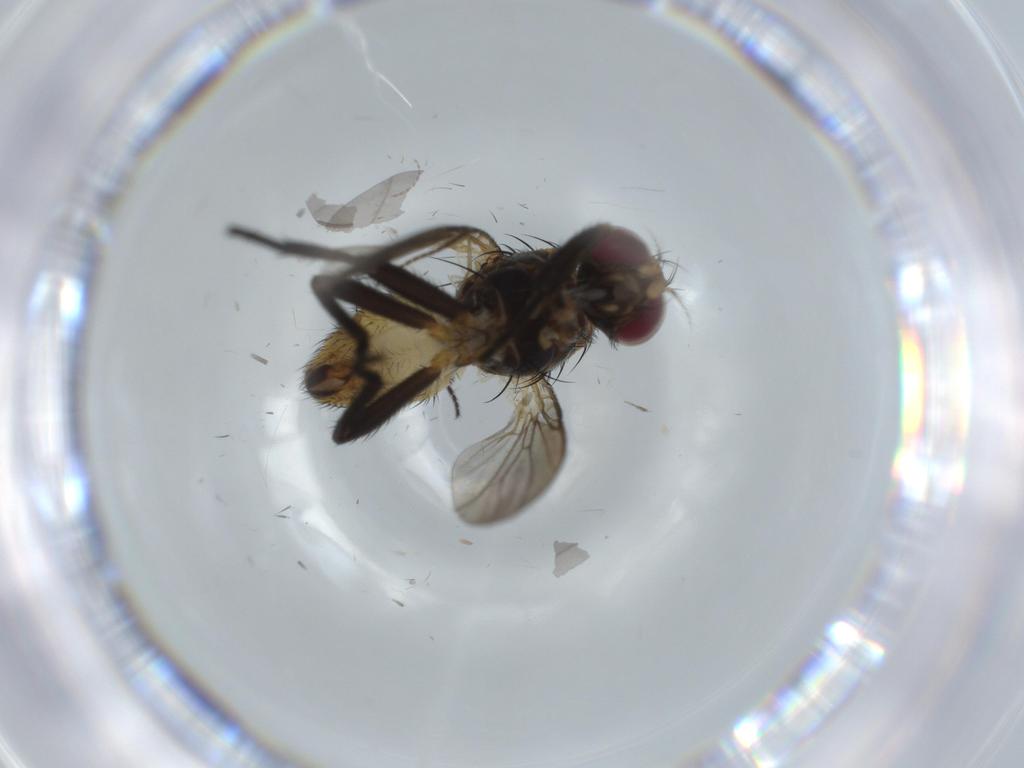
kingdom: Animalia
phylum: Arthropoda
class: Insecta
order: Diptera
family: Anthomyiidae
